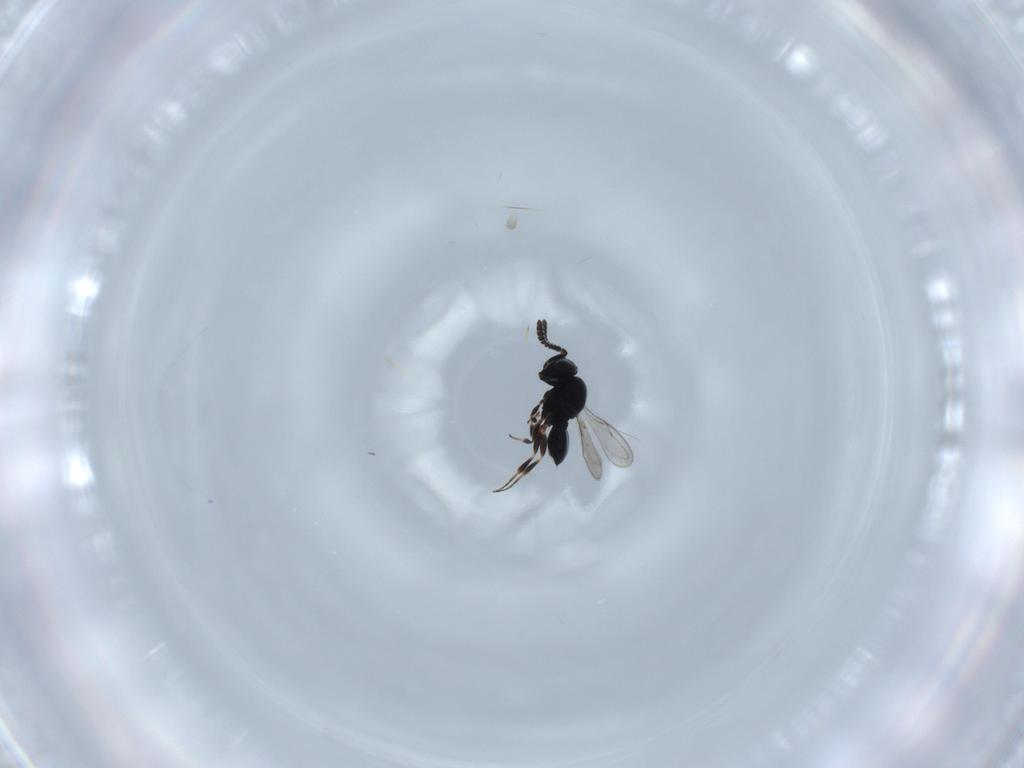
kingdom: Animalia
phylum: Arthropoda
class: Insecta
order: Hymenoptera
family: Scelionidae
